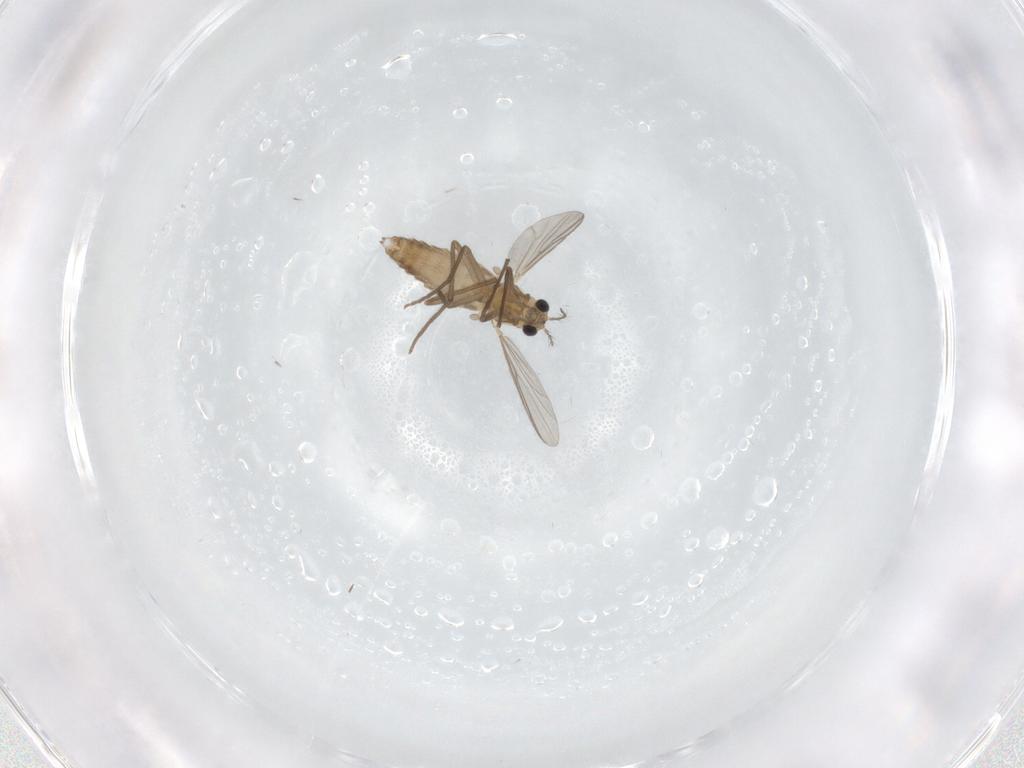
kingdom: Animalia
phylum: Arthropoda
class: Insecta
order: Diptera
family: Chironomidae
